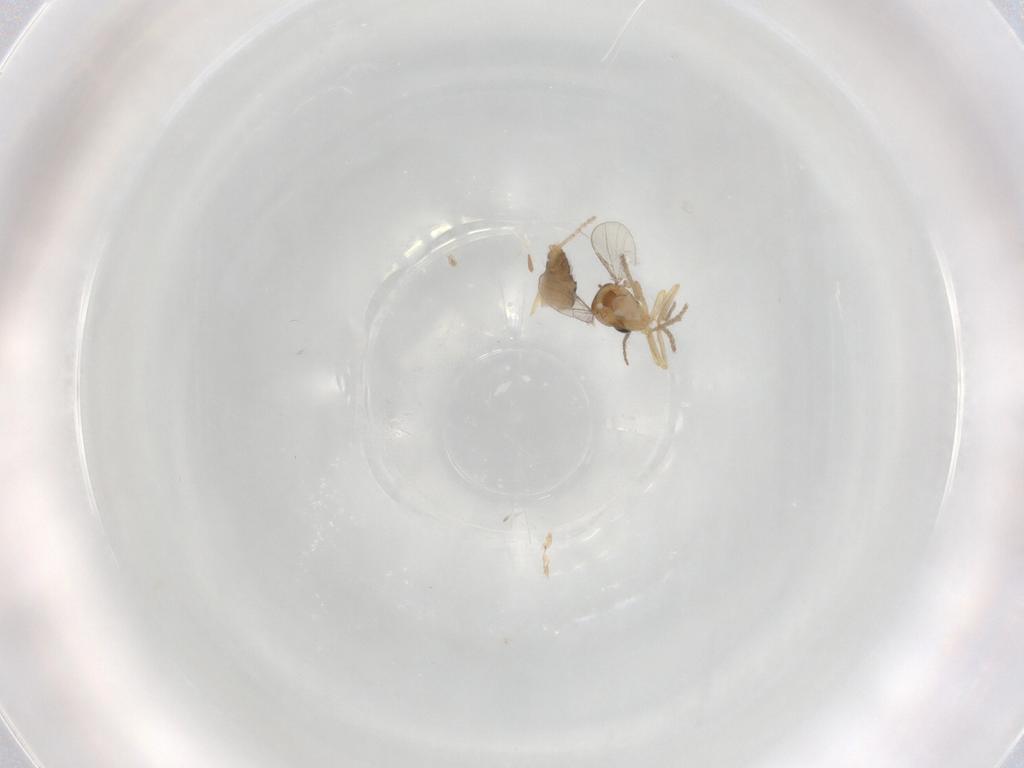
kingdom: Animalia
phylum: Arthropoda
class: Insecta
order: Diptera
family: Ceratopogonidae
